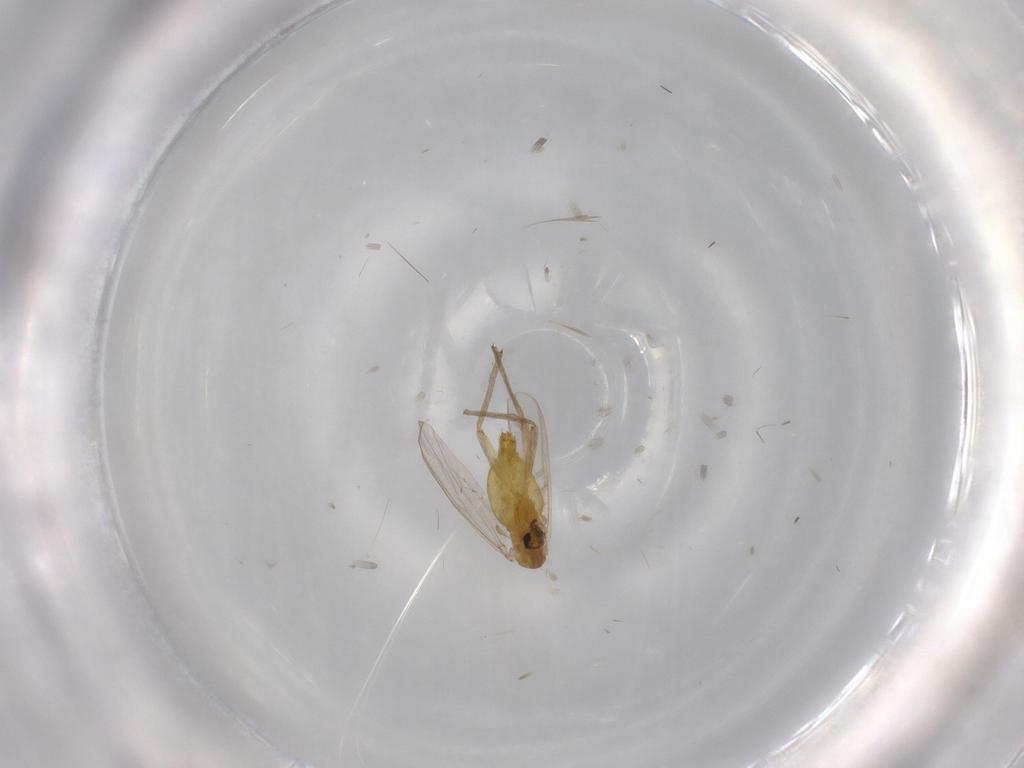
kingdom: Animalia
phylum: Arthropoda
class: Insecta
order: Diptera
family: Chironomidae
